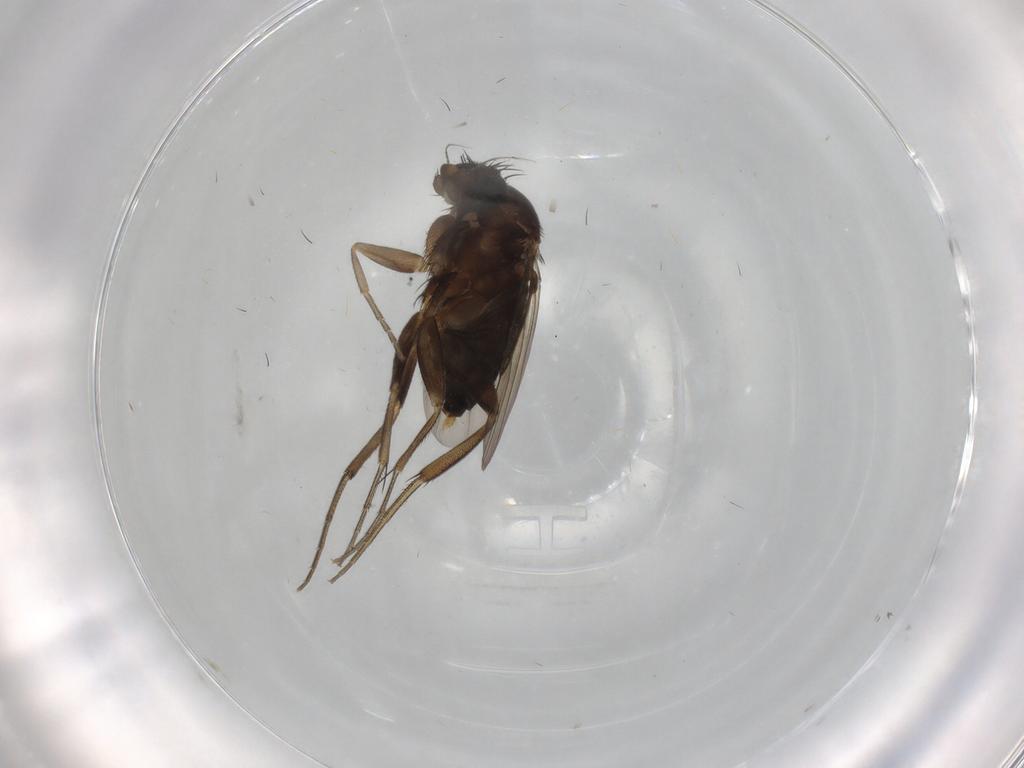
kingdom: Animalia
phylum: Arthropoda
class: Insecta
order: Diptera
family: Phoridae
